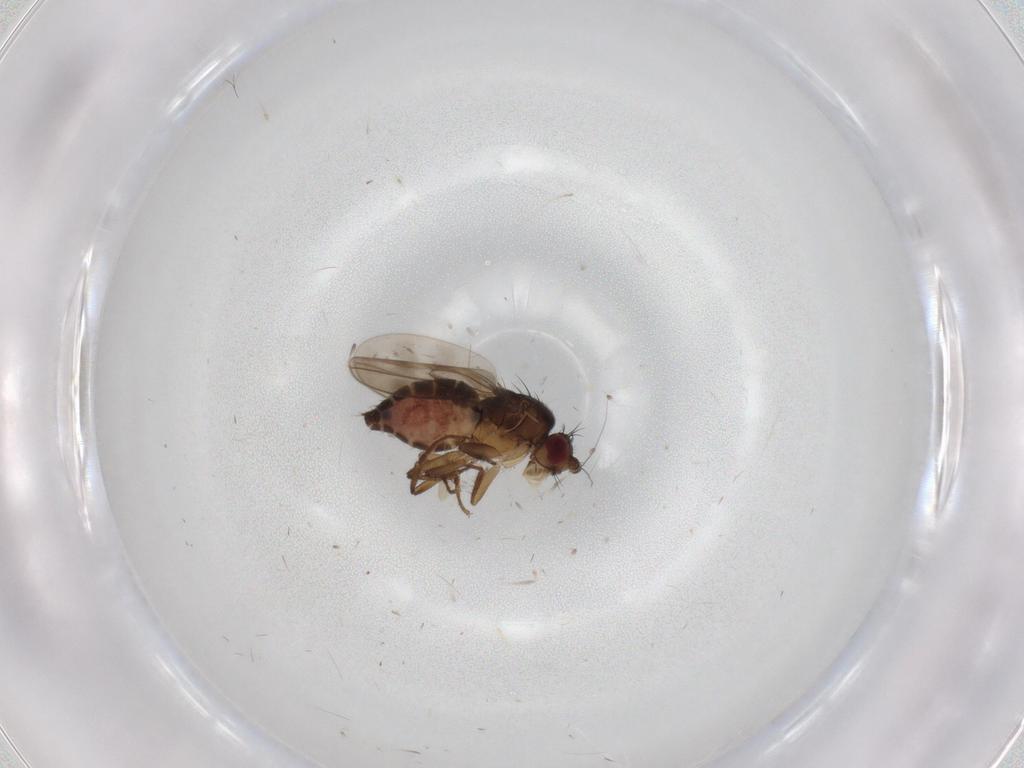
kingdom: Animalia
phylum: Arthropoda
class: Insecta
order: Diptera
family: Sphaeroceridae
